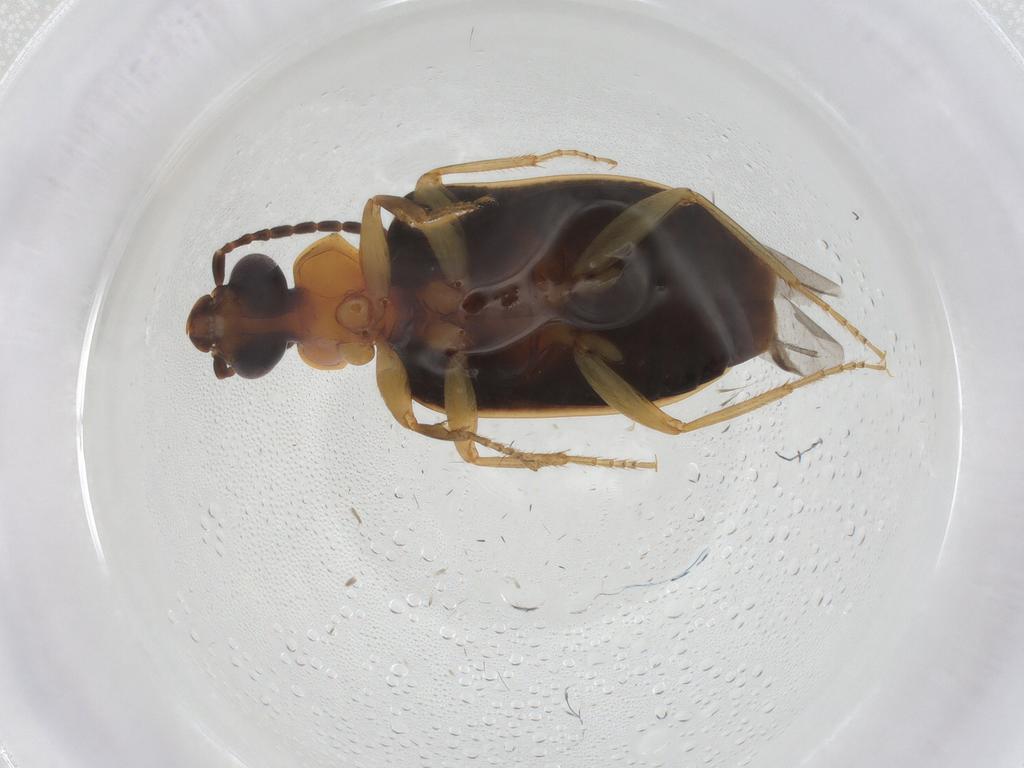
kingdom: Animalia
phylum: Arthropoda
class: Insecta
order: Coleoptera
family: Carabidae
